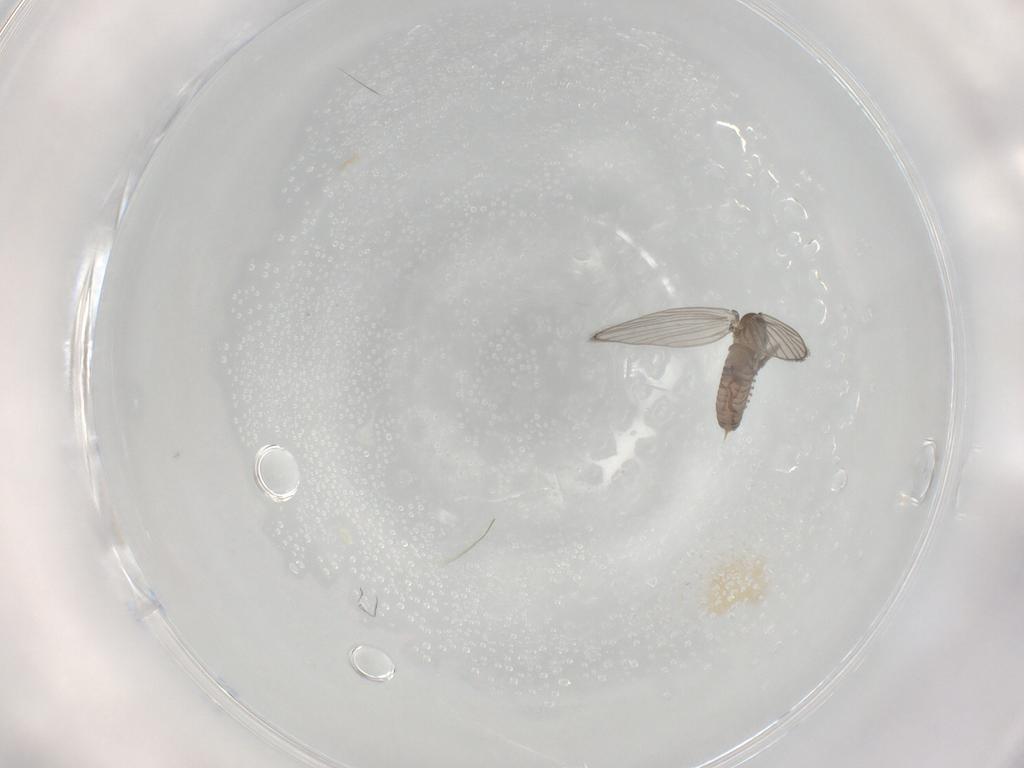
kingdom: Animalia
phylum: Arthropoda
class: Insecta
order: Diptera
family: Psychodidae
